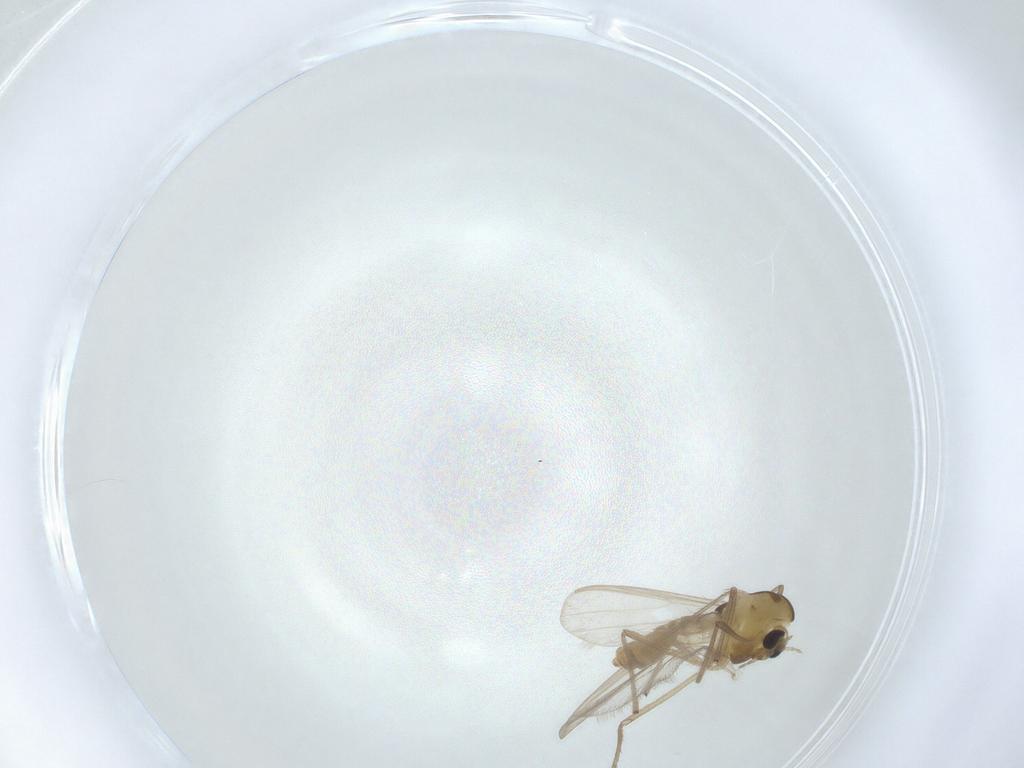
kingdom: Animalia
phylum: Arthropoda
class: Insecta
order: Diptera
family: Chironomidae
